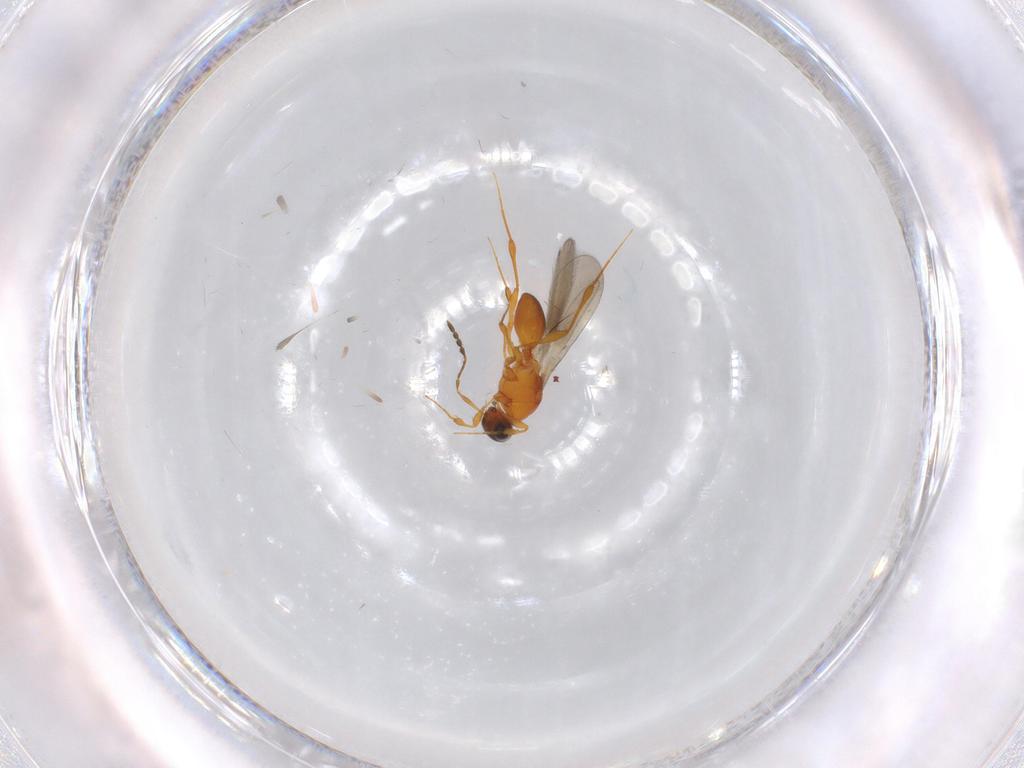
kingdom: Animalia
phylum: Arthropoda
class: Insecta
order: Hymenoptera
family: Platygastridae
